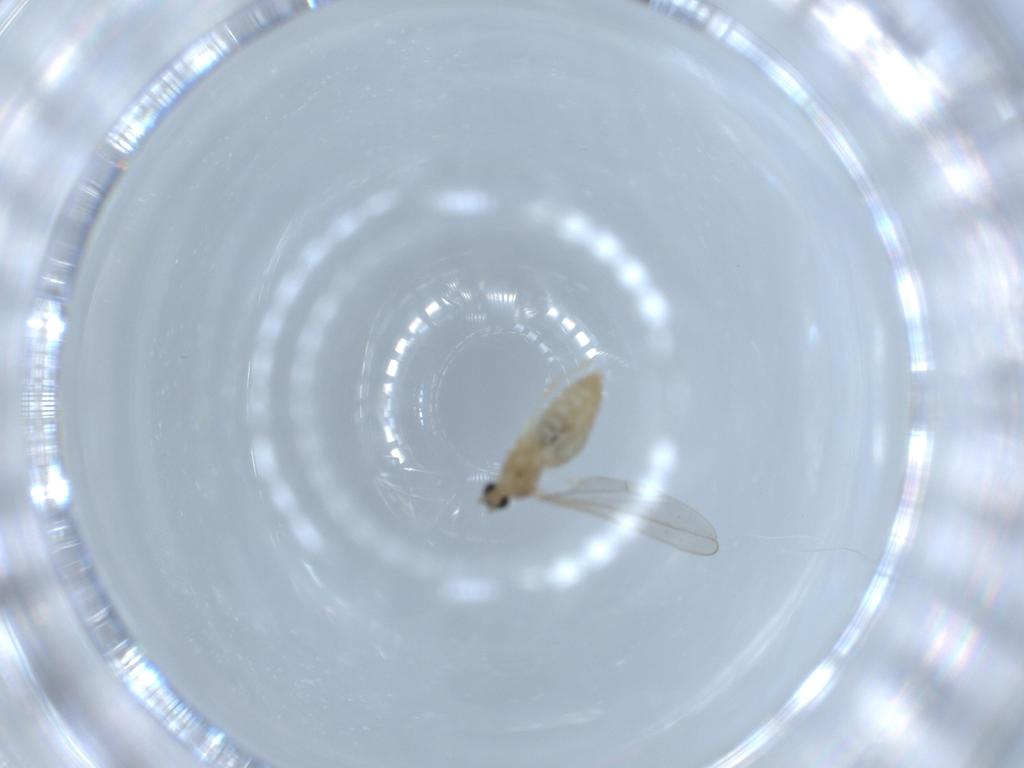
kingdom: Animalia
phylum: Arthropoda
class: Insecta
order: Diptera
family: Cecidomyiidae
